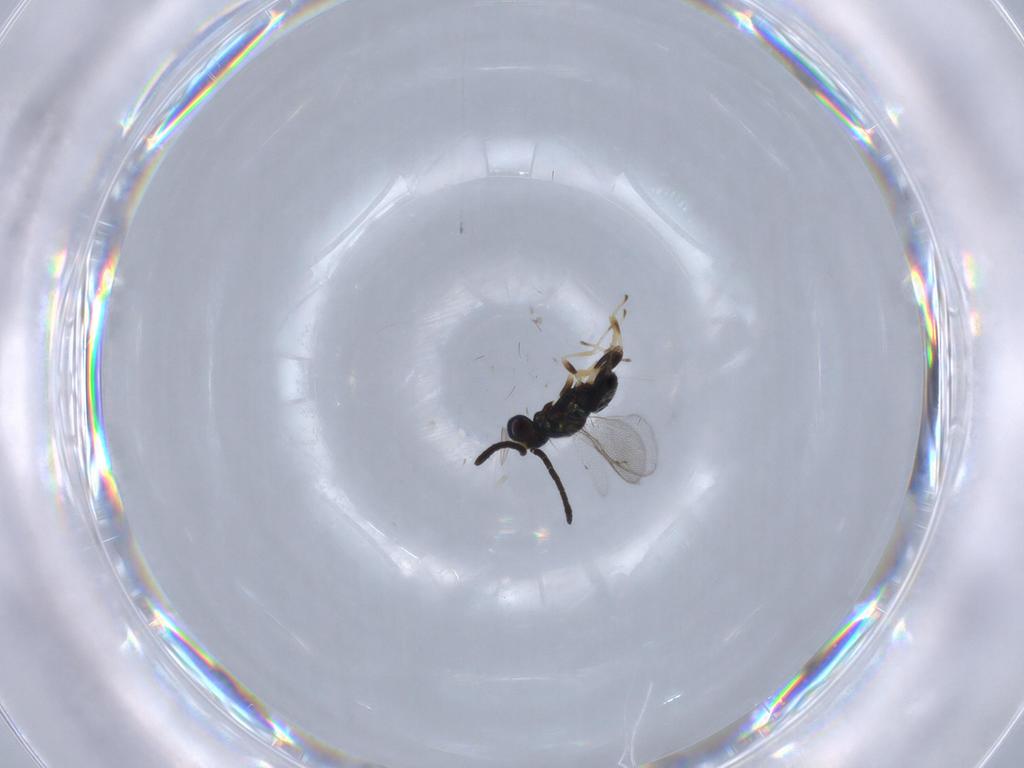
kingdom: Animalia
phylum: Arthropoda
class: Insecta
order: Hymenoptera
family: Eupelmidae
